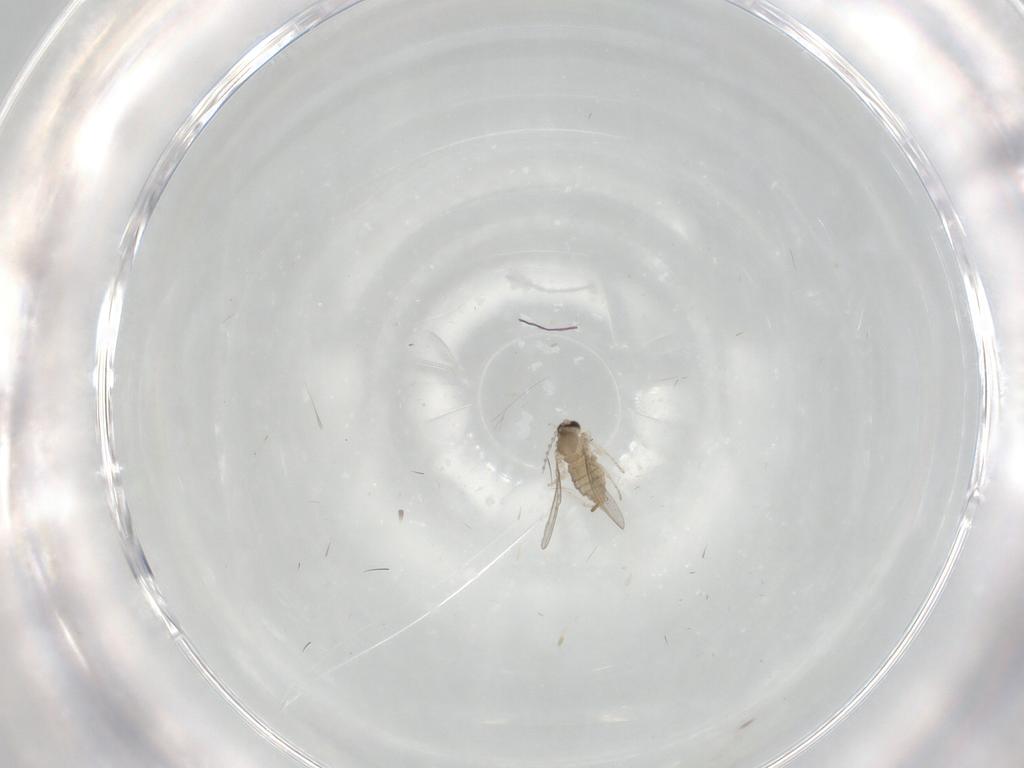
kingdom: Animalia
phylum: Arthropoda
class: Insecta
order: Diptera
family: Cecidomyiidae
